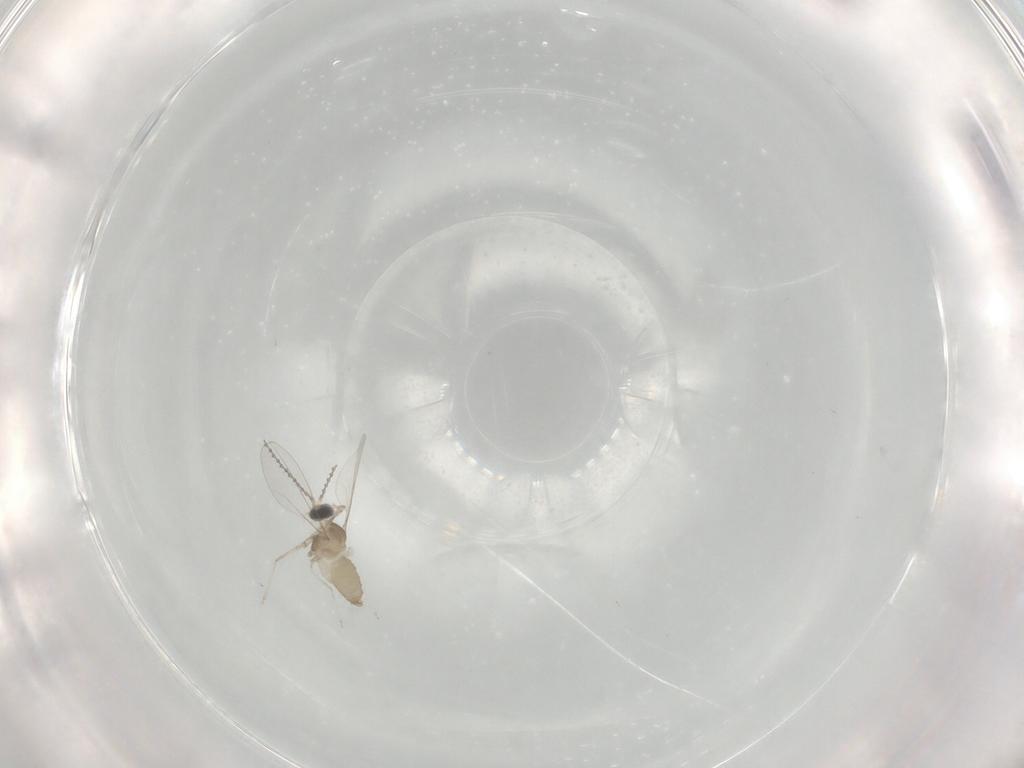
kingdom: Animalia
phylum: Arthropoda
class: Insecta
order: Diptera
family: Cecidomyiidae
